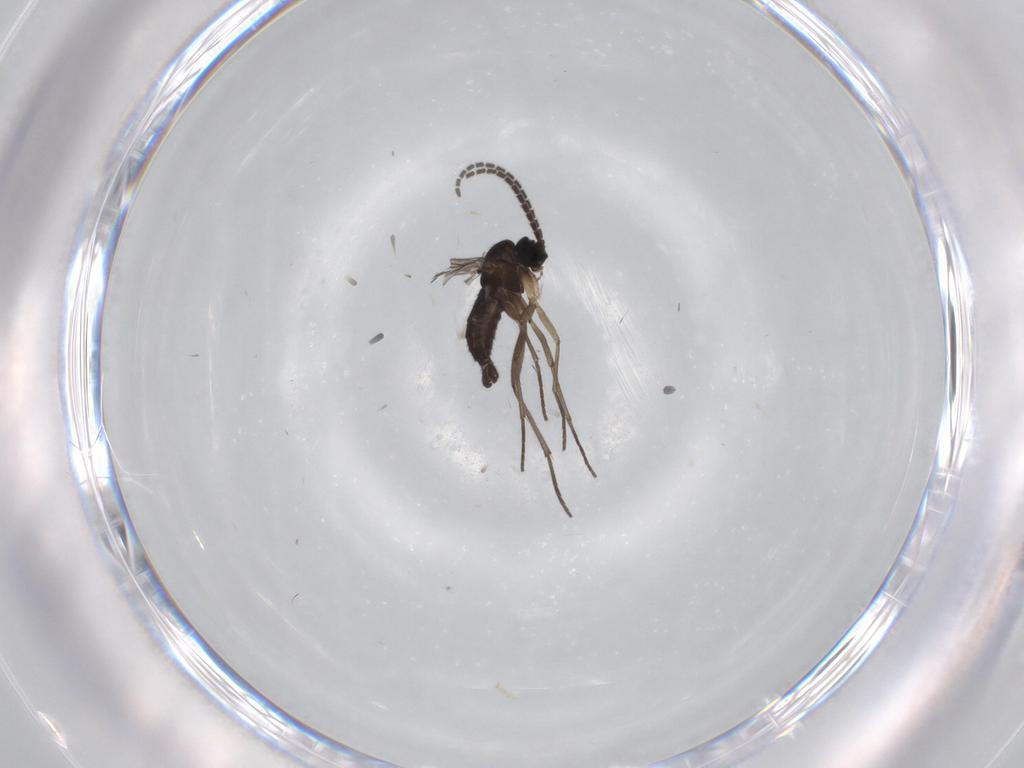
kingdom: Animalia
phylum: Arthropoda
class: Insecta
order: Diptera
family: Sciaridae
